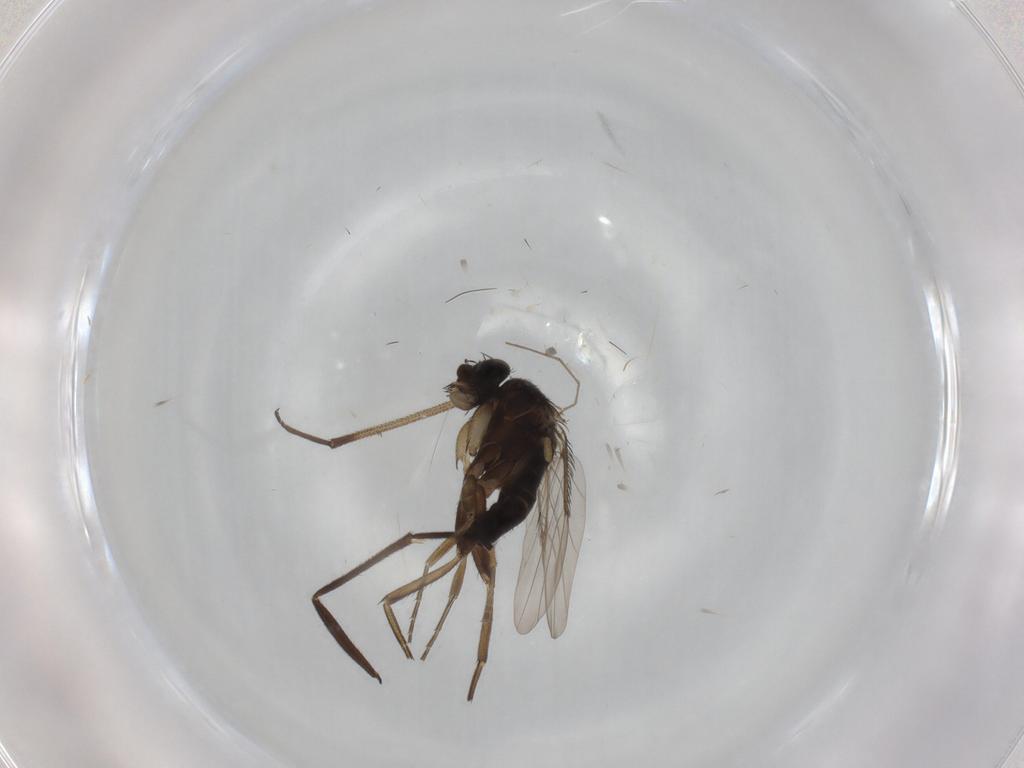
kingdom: Animalia
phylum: Arthropoda
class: Insecta
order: Diptera
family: Phoridae
